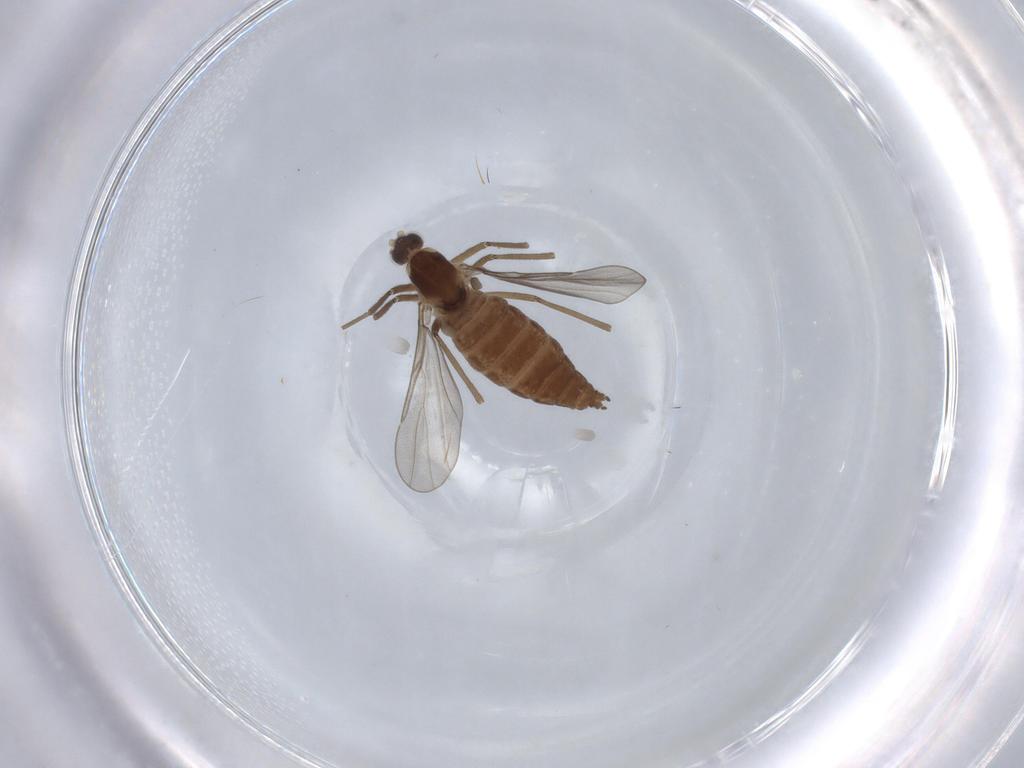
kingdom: Animalia
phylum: Arthropoda
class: Insecta
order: Diptera
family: Cecidomyiidae
